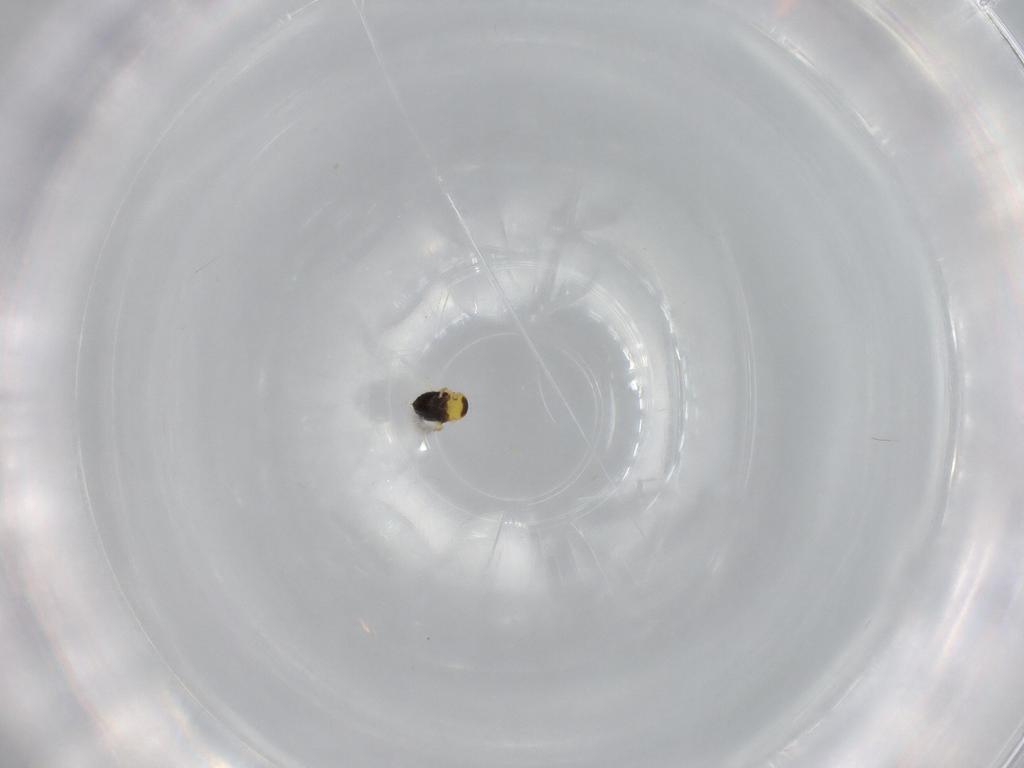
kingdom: Animalia
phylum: Arthropoda
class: Insecta
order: Hymenoptera
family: Signiphoridae
